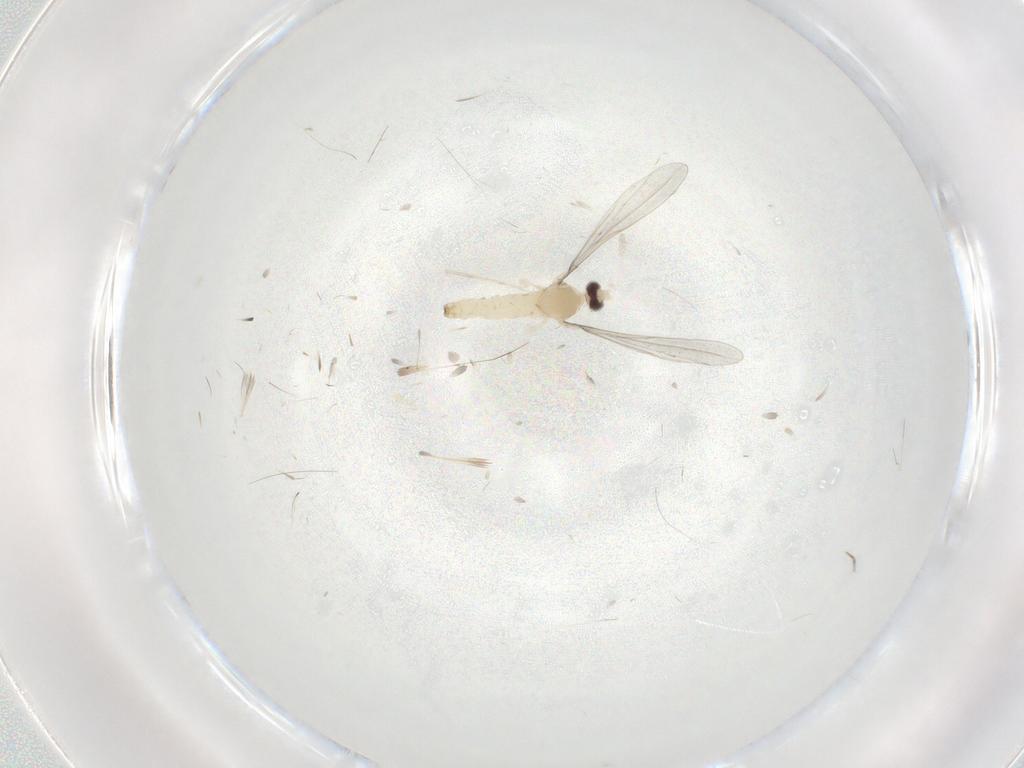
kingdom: Animalia
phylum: Arthropoda
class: Insecta
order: Diptera
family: Cecidomyiidae
